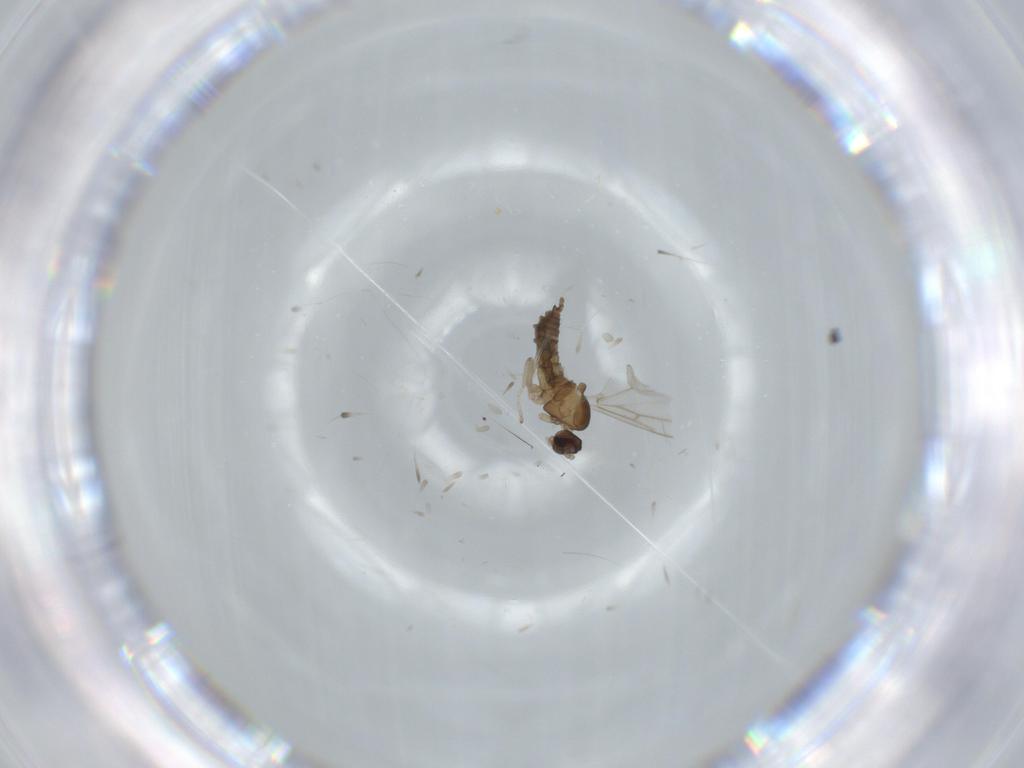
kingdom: Animalia
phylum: Arthropoda
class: Insecta
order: Diptera
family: Cecidomyiidae
